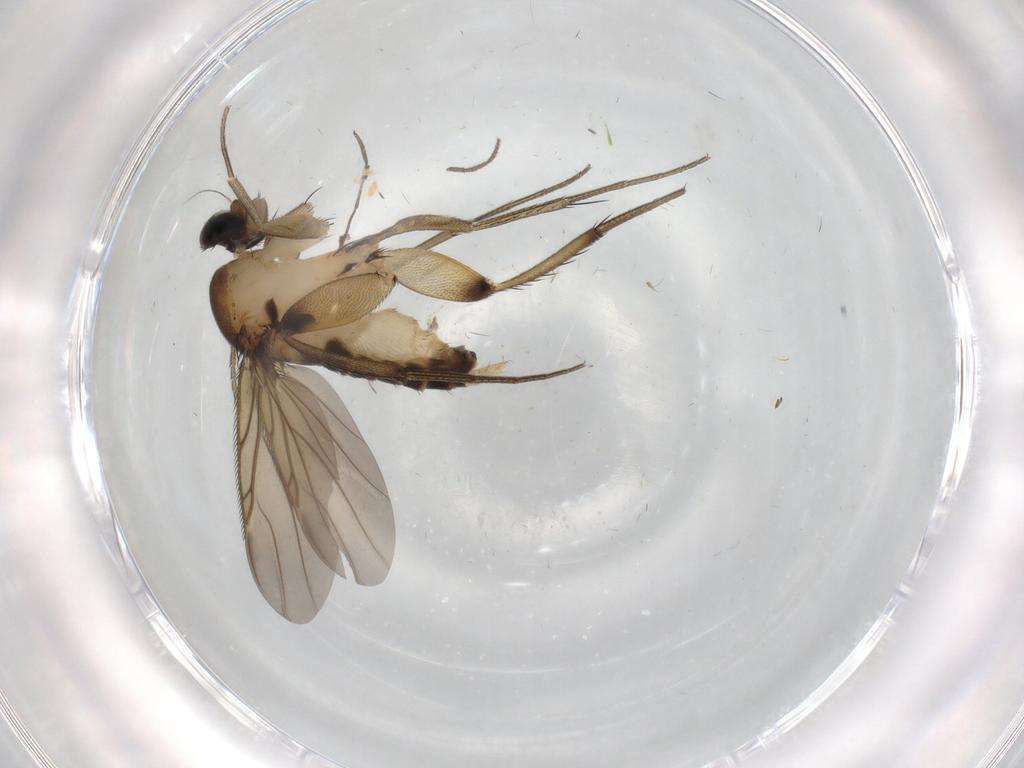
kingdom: Animalia
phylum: Arthropoda
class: Insecta
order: Diptera
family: Phoridae
